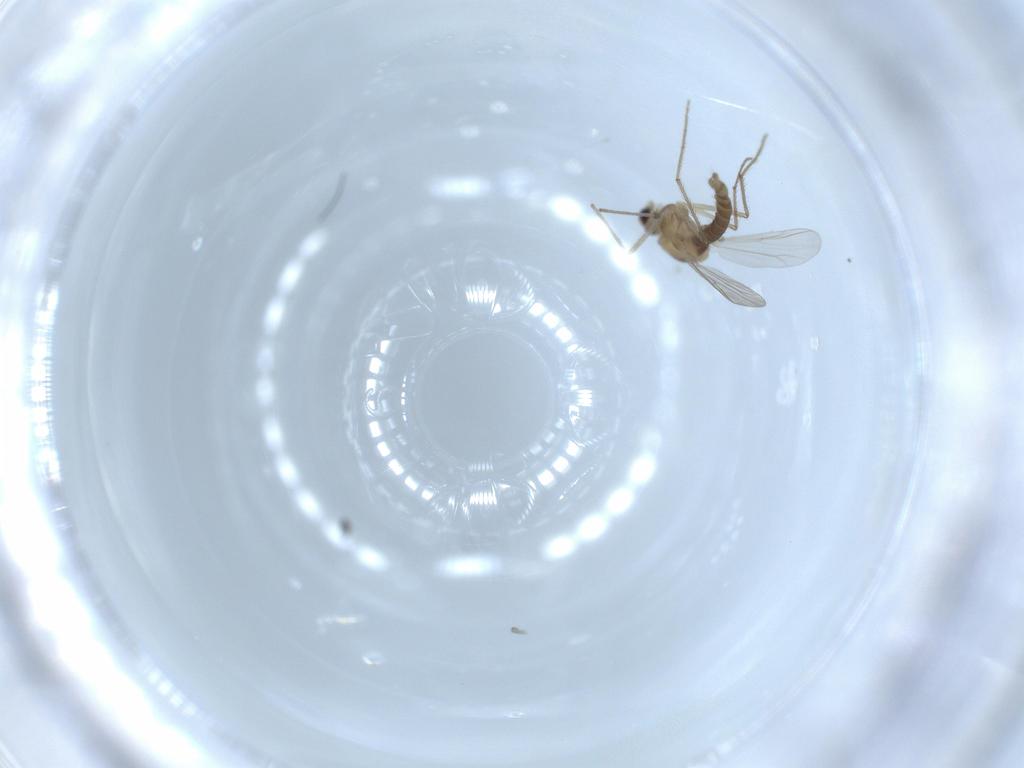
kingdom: Animalia
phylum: Arthropoda
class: Insecta
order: Diptera
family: Chironomidae
